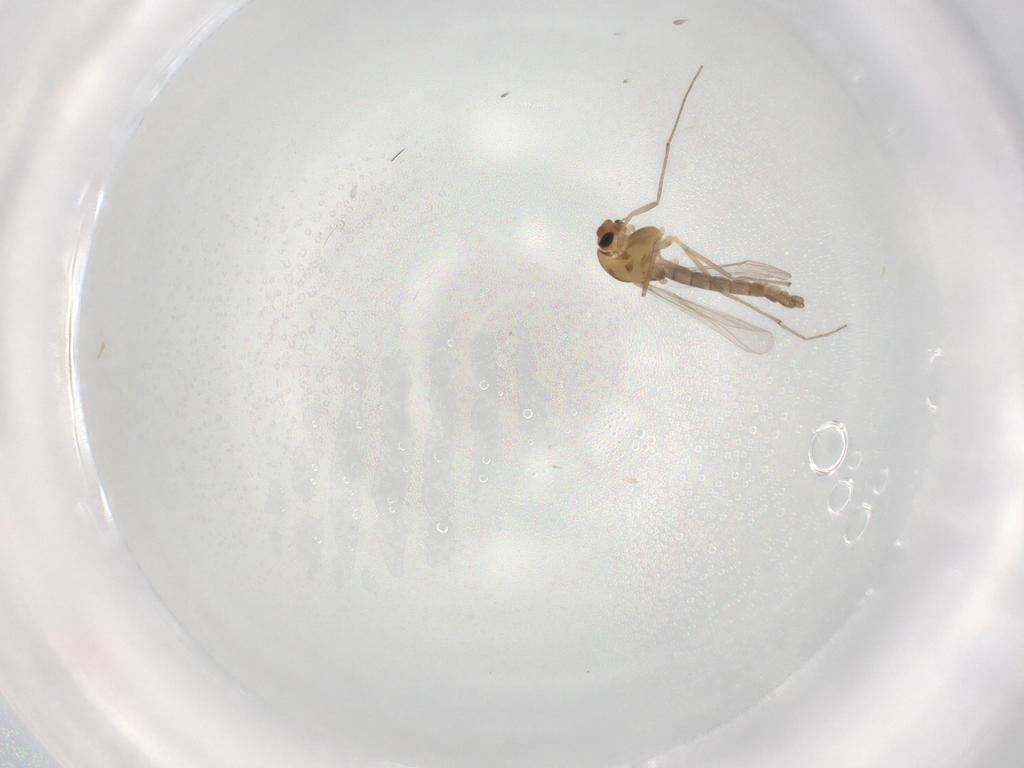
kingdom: Animalia
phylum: Arthropoda
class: Insecta
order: Diptera
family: Chironomidae
